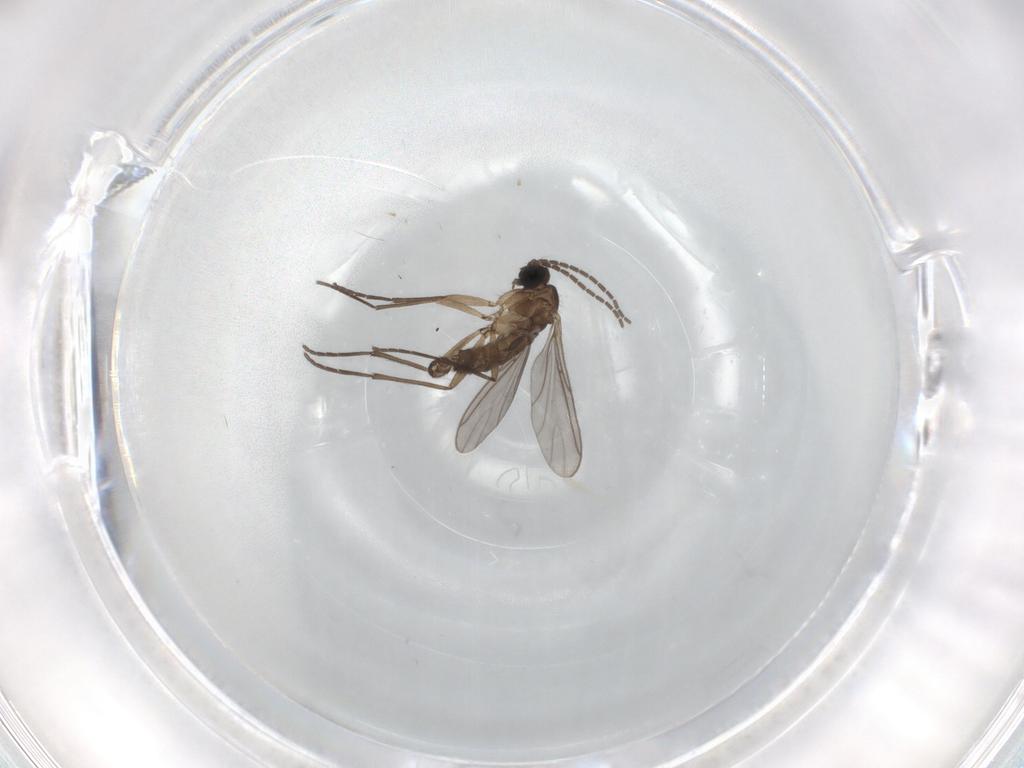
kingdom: Animalia
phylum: Arthropoda
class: Insecta
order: Diptera
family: Sciaridae
